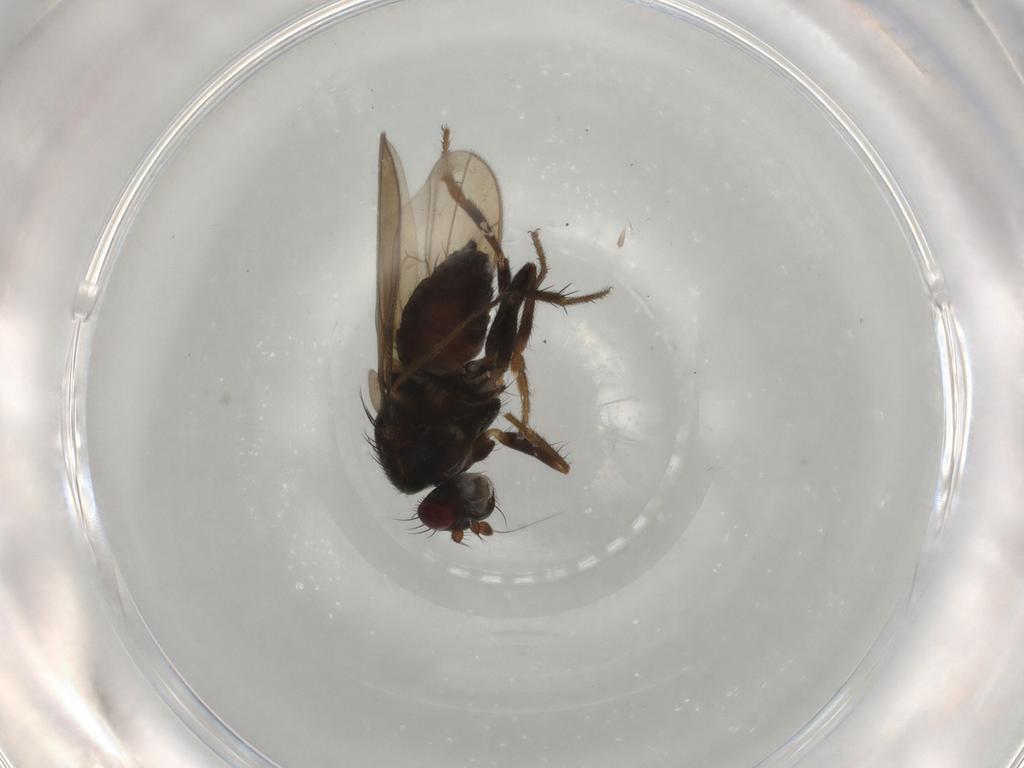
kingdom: Animalia
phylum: Arthropoda
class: Insecta
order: Diptera
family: Sphaeroceridae
